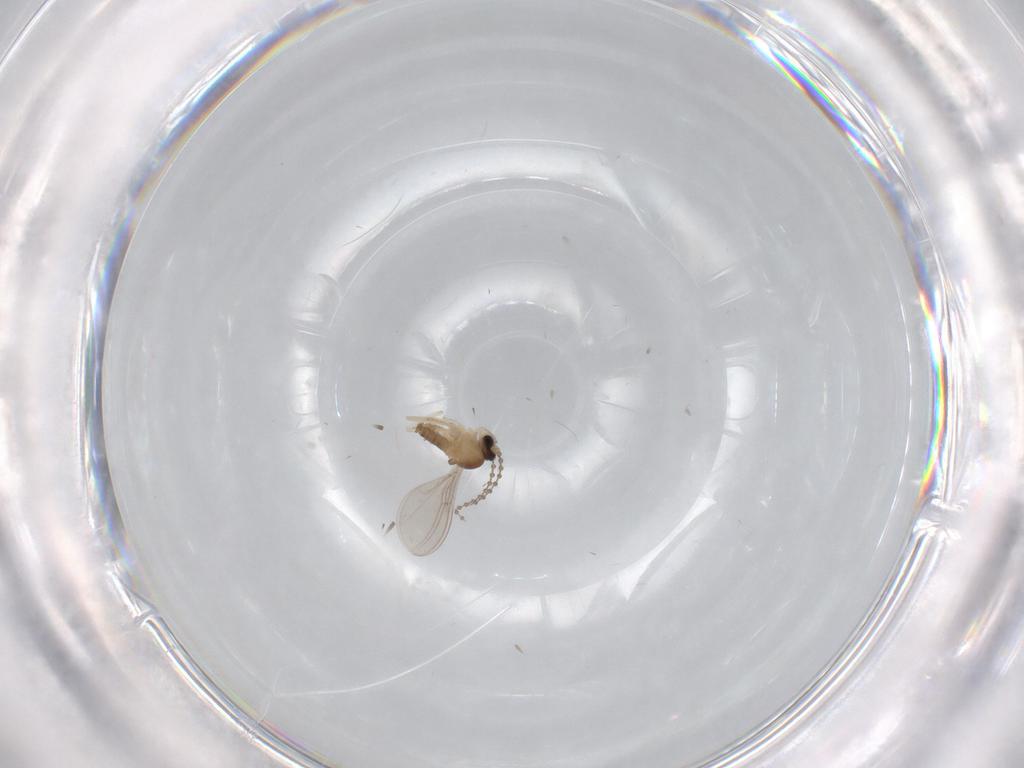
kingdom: Animalia
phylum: Arthropoda
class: Insecta
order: Diptera
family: Cecidomyiidae
